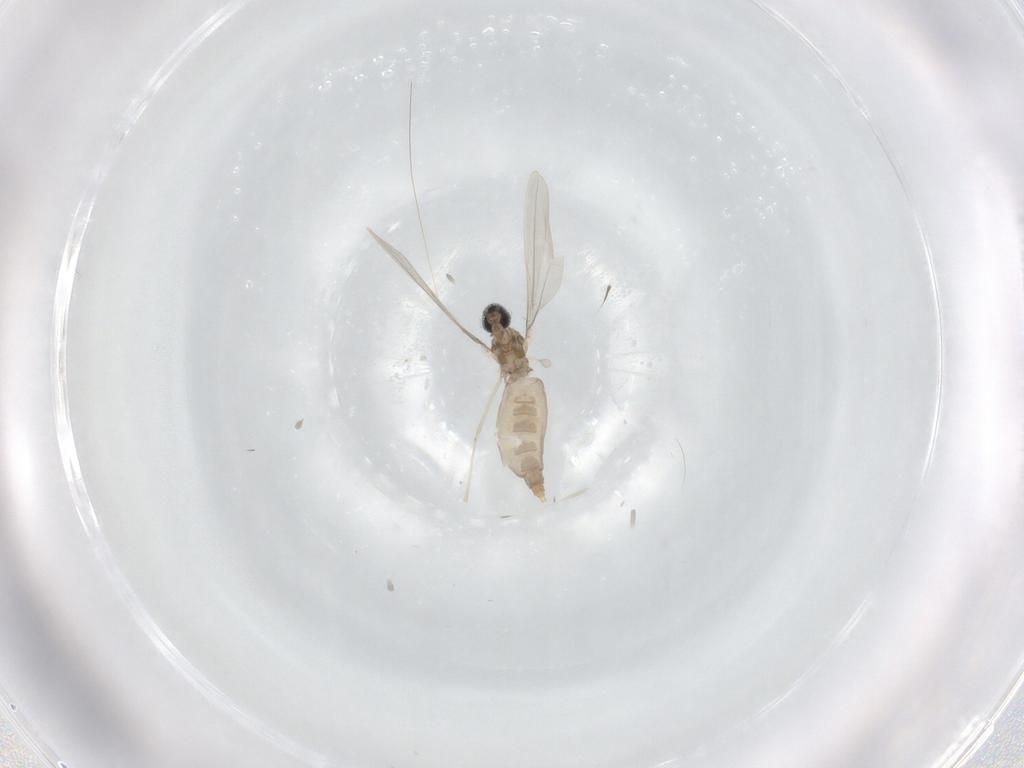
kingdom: Animalia
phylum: Arthropoda
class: Insecta
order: Diptera
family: Cecidomyiidae
